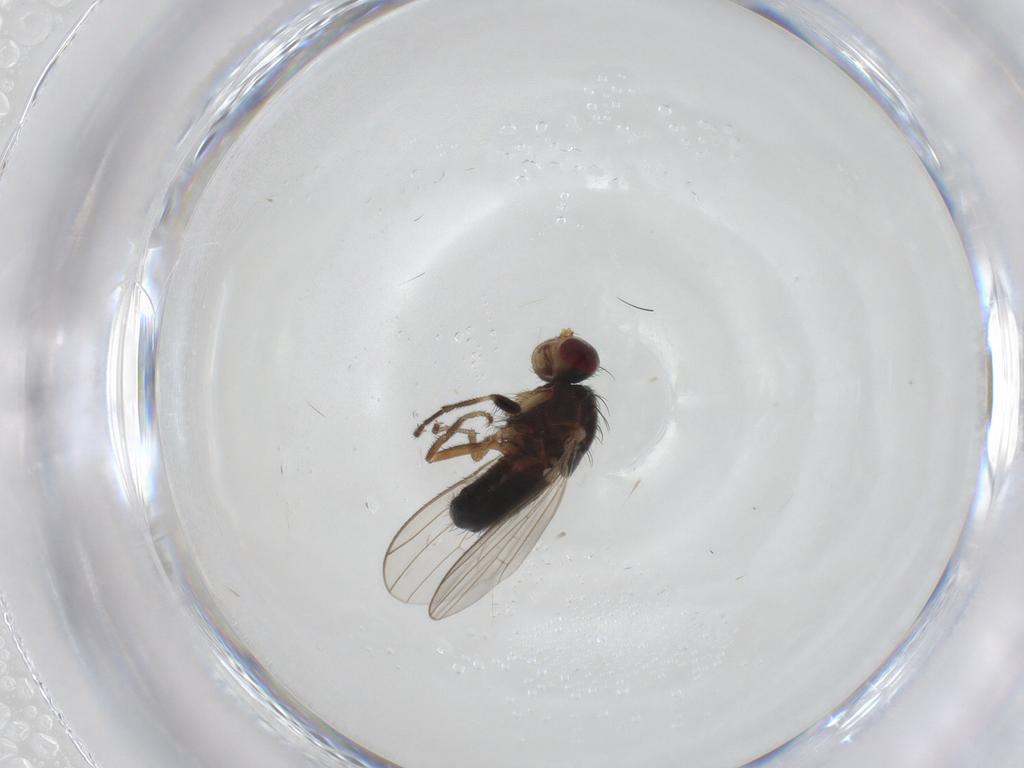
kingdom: Animalia
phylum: Arthropoda
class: Insecta
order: Diptera
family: Heleomyzidae
